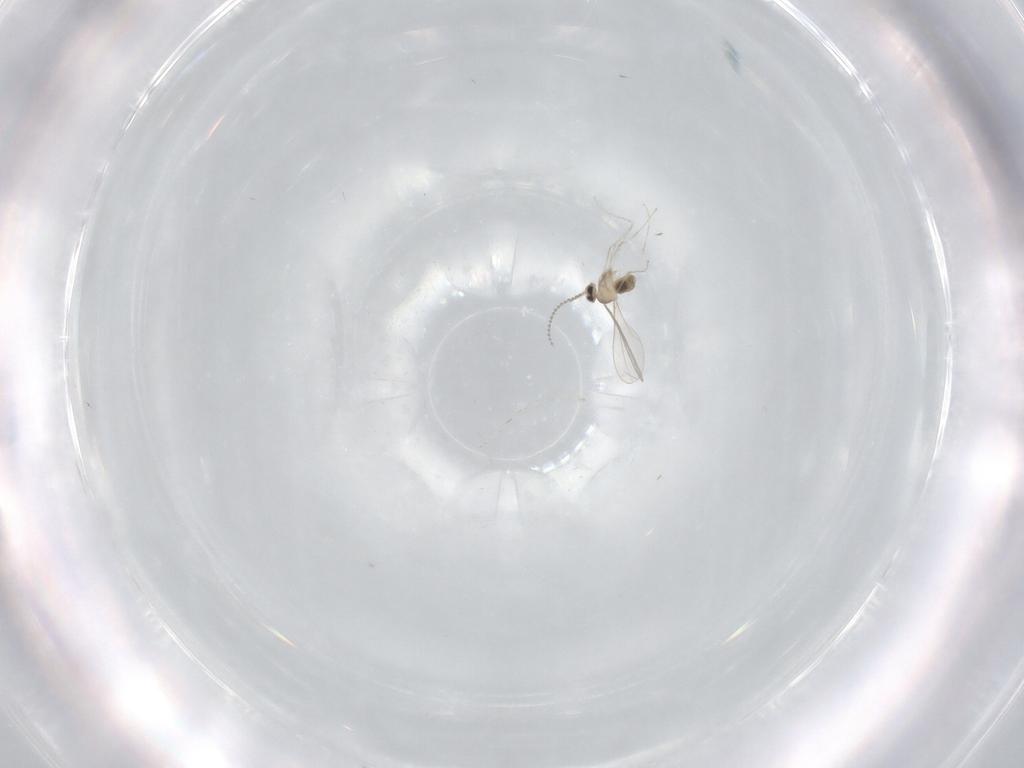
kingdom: Animalia
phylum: Arthropoda
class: Insecta
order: Diptera
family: Cecidomyiidae
